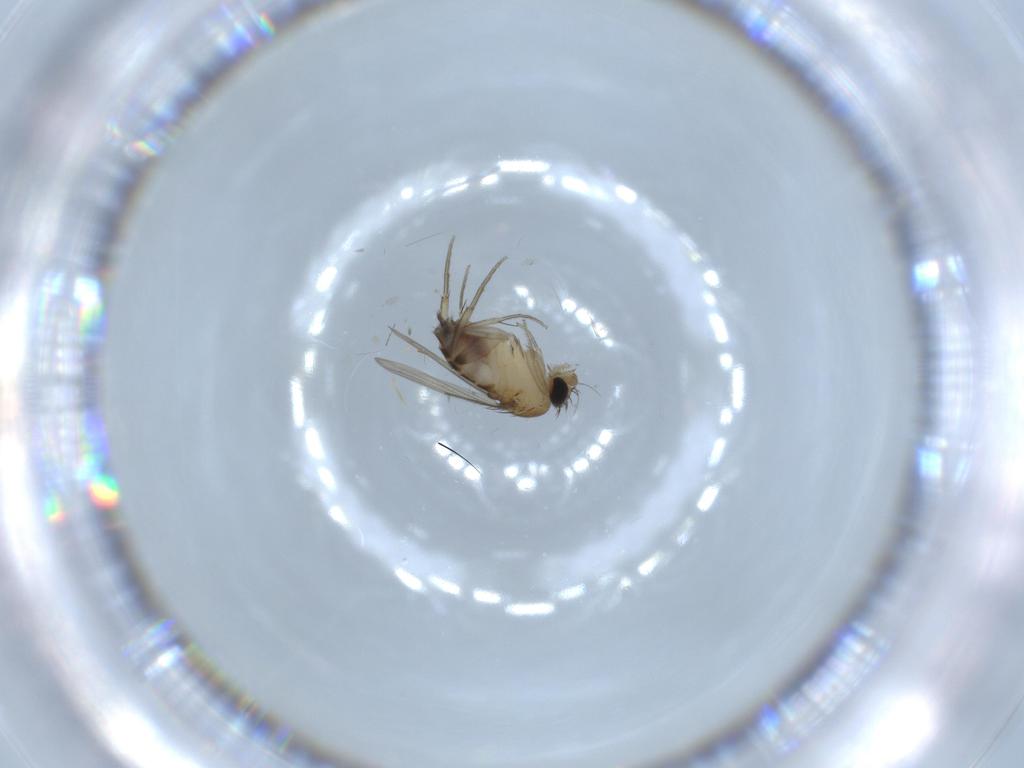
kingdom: Animalia
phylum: Arthropoda
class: Insecta
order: Diptera
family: Phoridae
